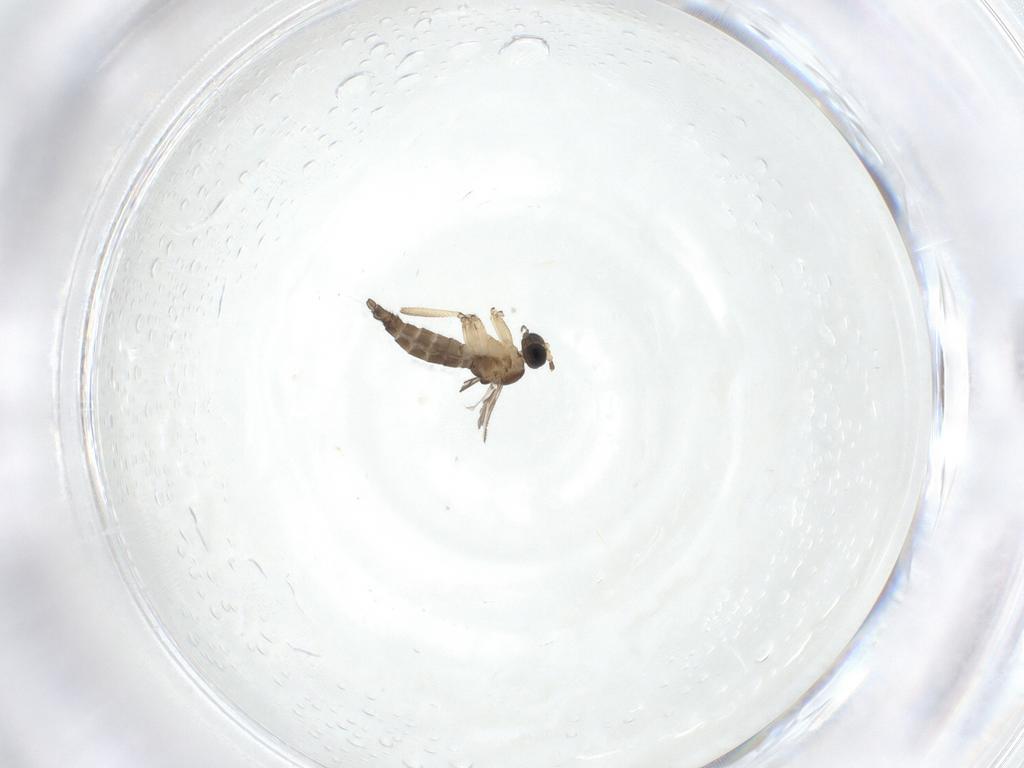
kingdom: Animalia
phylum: Arthropoda
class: Insecta
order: Diptera
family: Sciaridae
